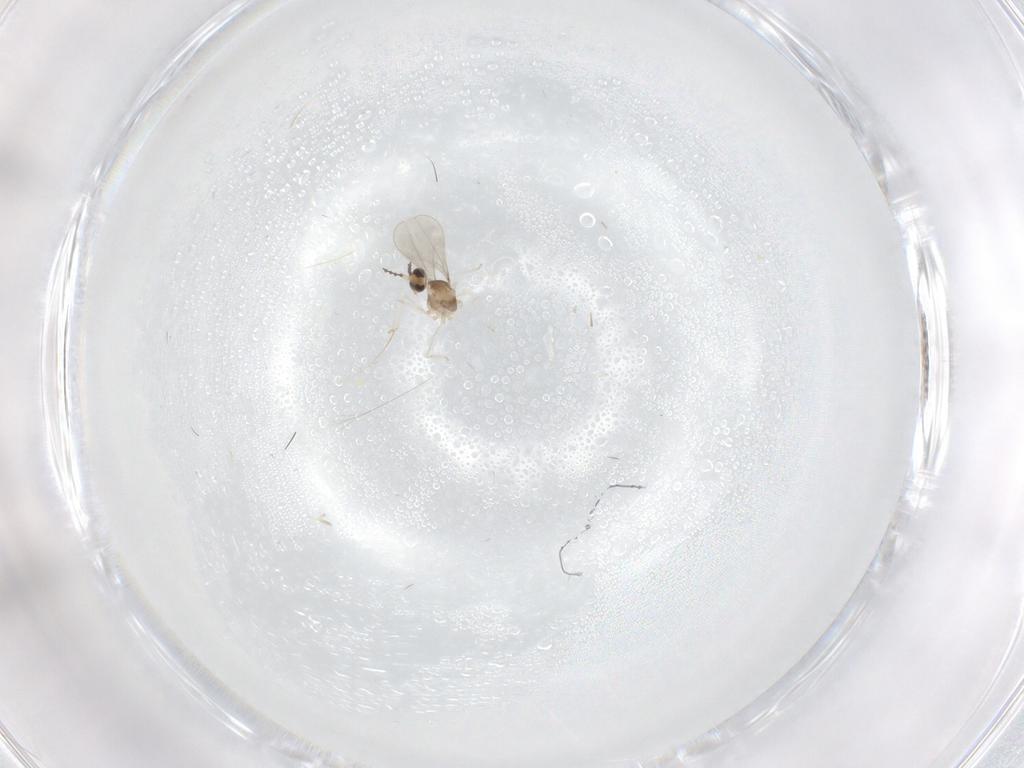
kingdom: Animalia
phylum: Arthropoda
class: Insecta
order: Diptera
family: Phoridae
